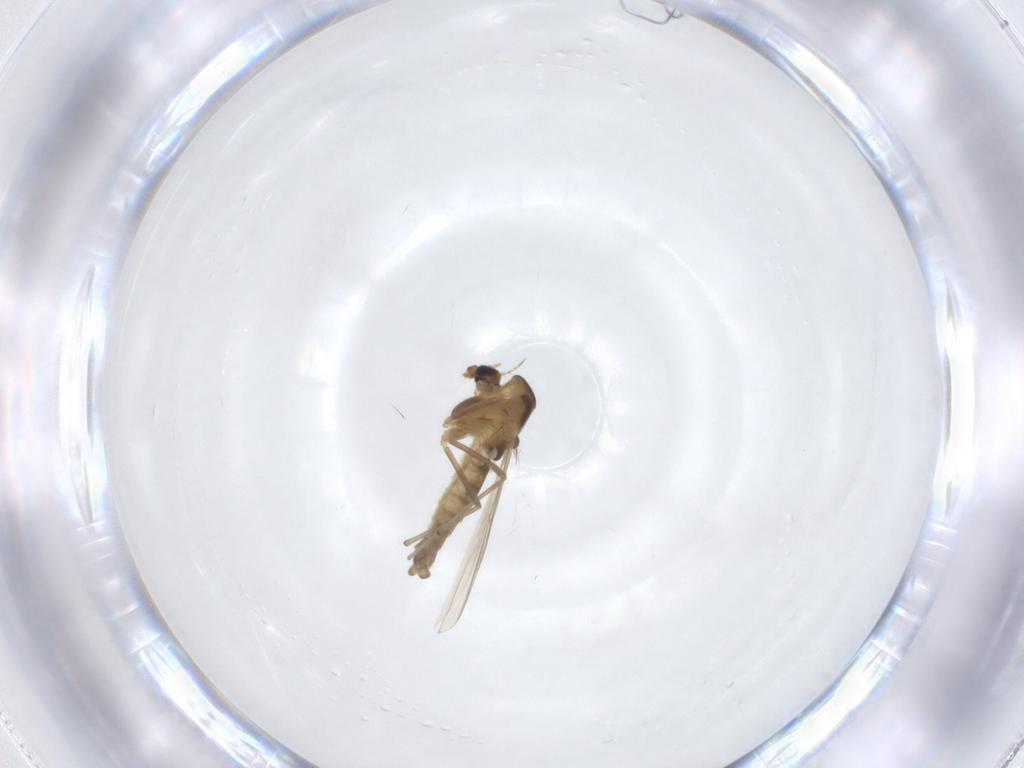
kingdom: Animalia
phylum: Arthropoda
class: Insecta
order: Diptera
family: Chironomidae
